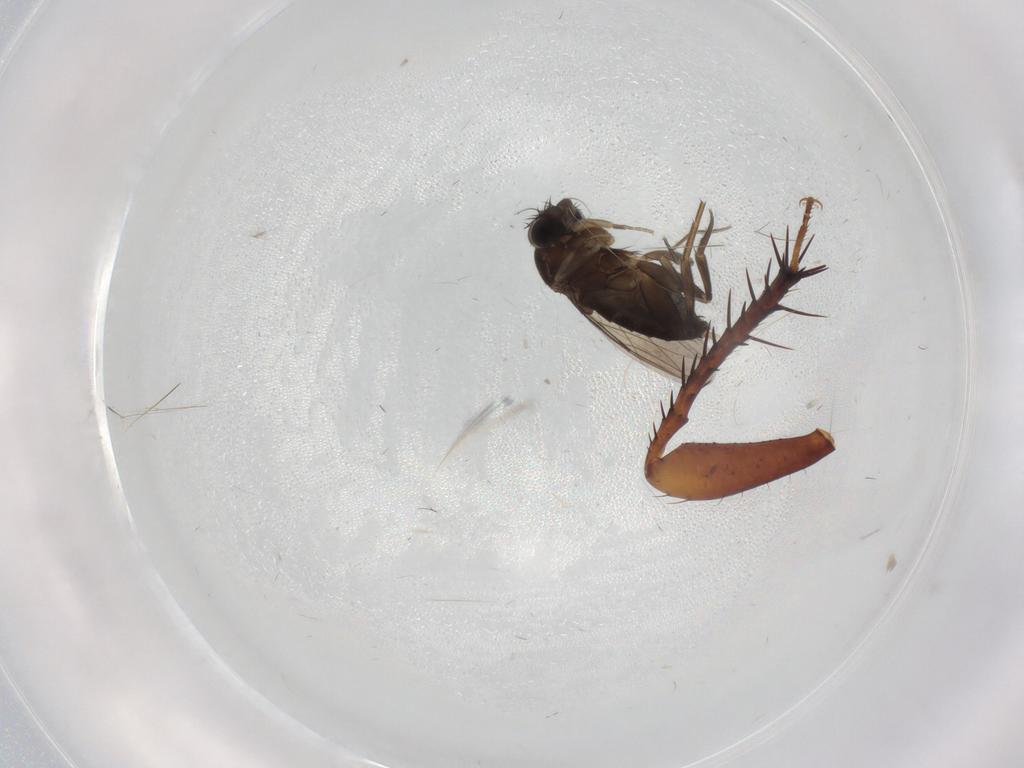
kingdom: Animalia
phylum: Arthropoda
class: Insecta
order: Diptera
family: Phoridae
